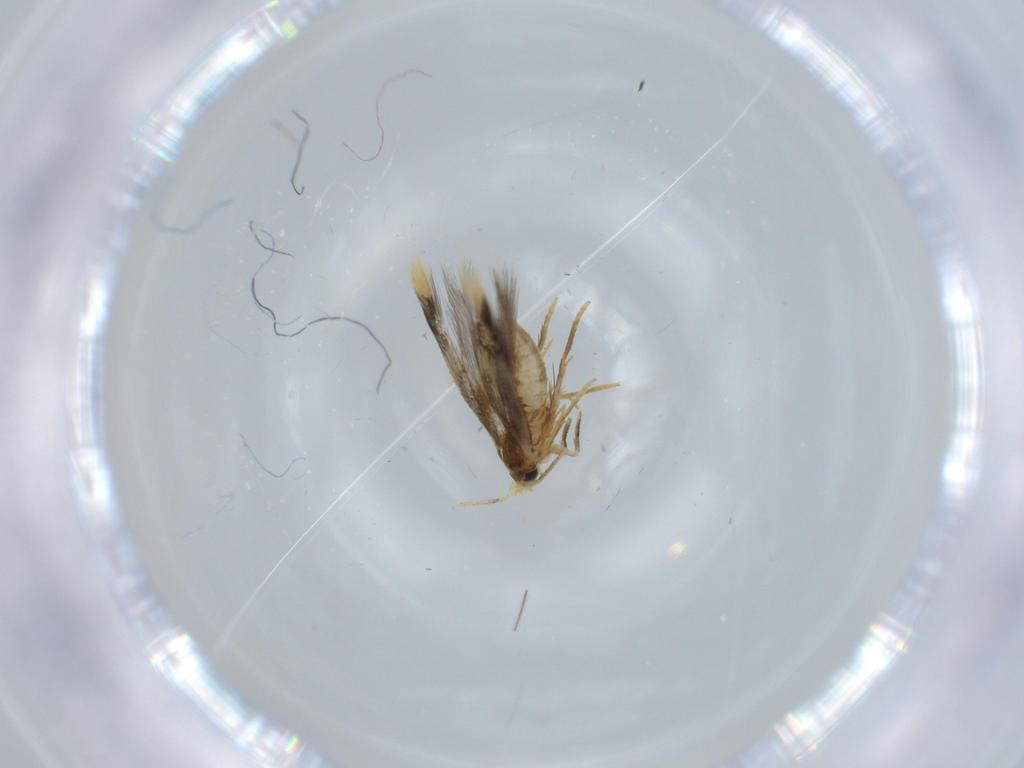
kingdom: Animalia
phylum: Arthropoda
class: Insecta
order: Lepidoptera
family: Copromorphidae
